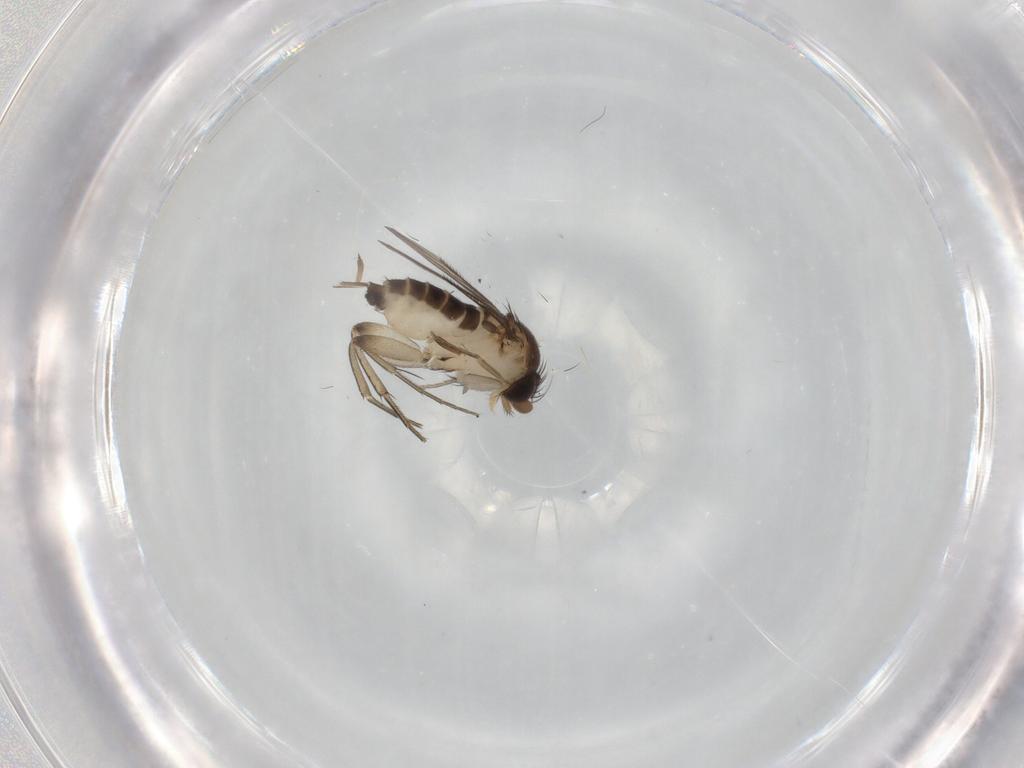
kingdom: Animalia
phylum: Arthropoda
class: Insecta
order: Diptera
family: Phoridae
